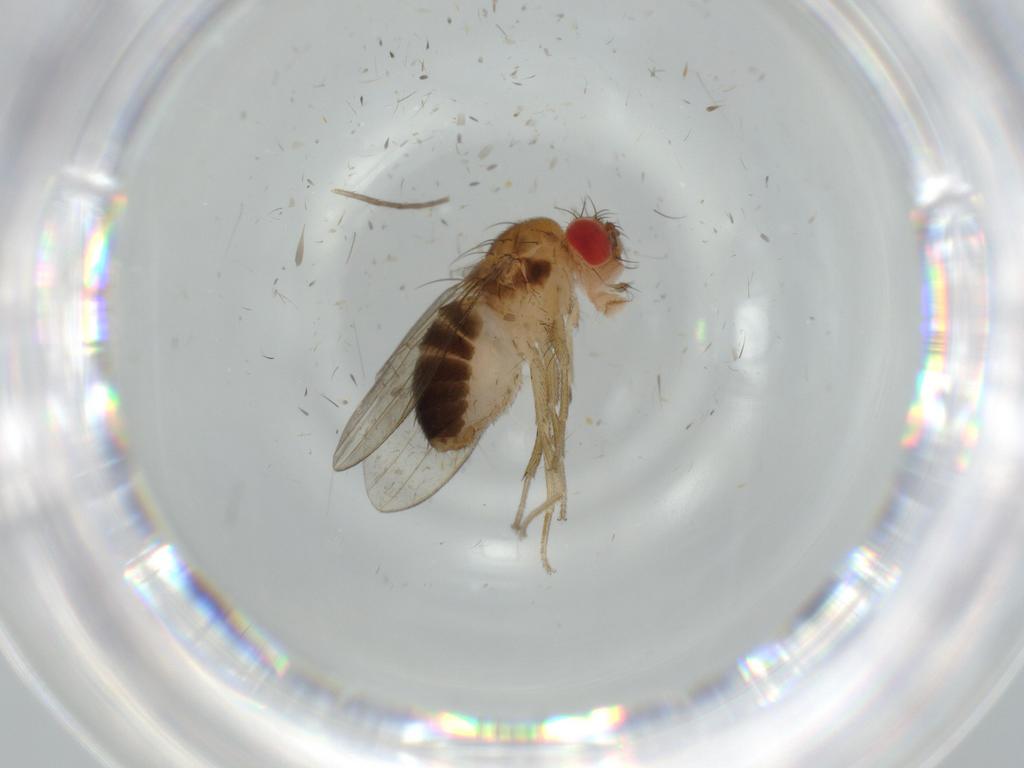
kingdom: Animalia
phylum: Arthropoda
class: Insecta
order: Diptera
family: Drosophilidae
